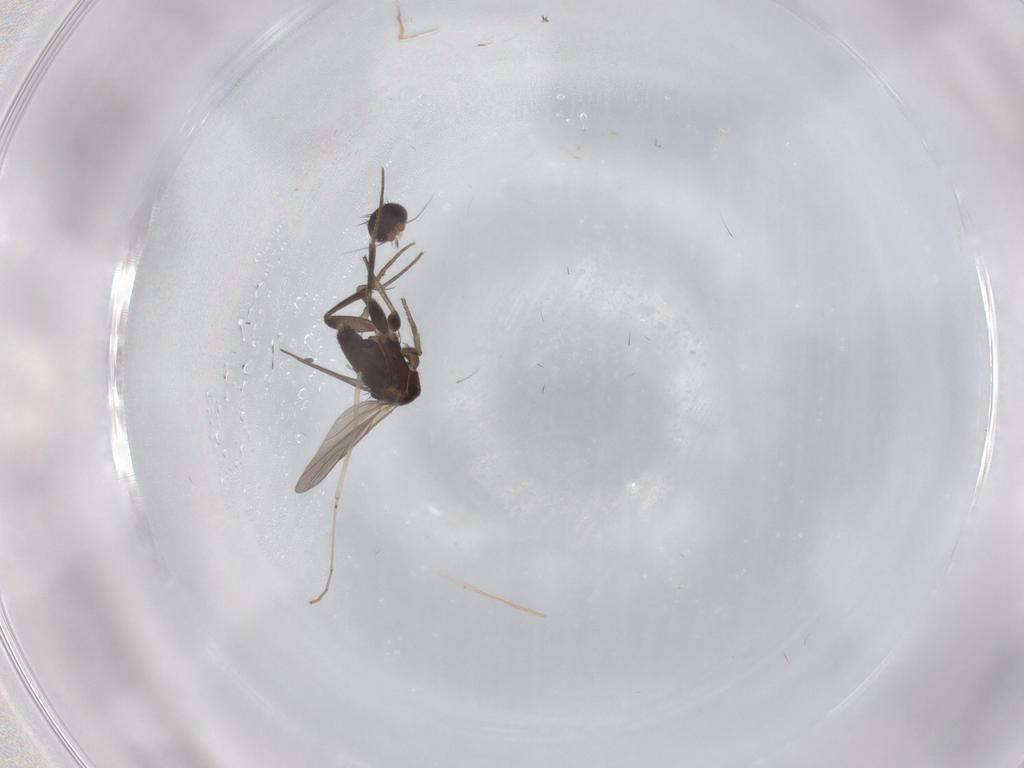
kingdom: Animalia
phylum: Arthropoda
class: Insecta
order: Diptera
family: Phoridae
